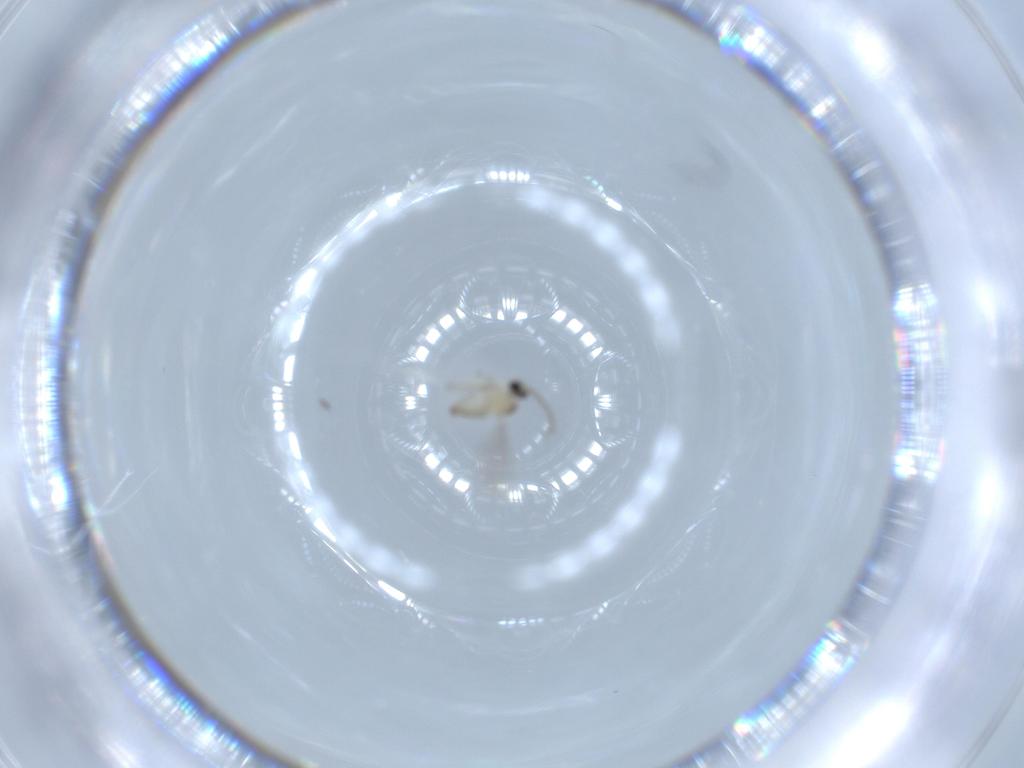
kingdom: Animalia
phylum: Arthropoda
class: Insecta
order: Diptera
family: Cecidomyiidae
